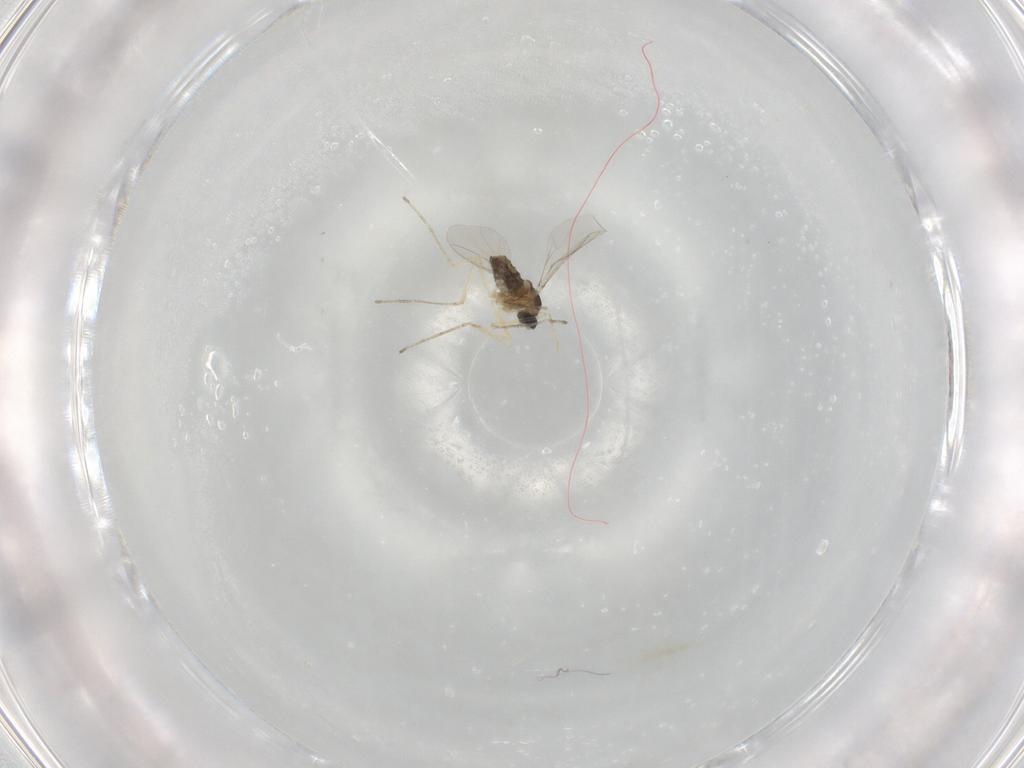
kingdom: Animalia
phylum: Arthropoda
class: Insecta
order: Diptera
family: Cecidomyiidae
